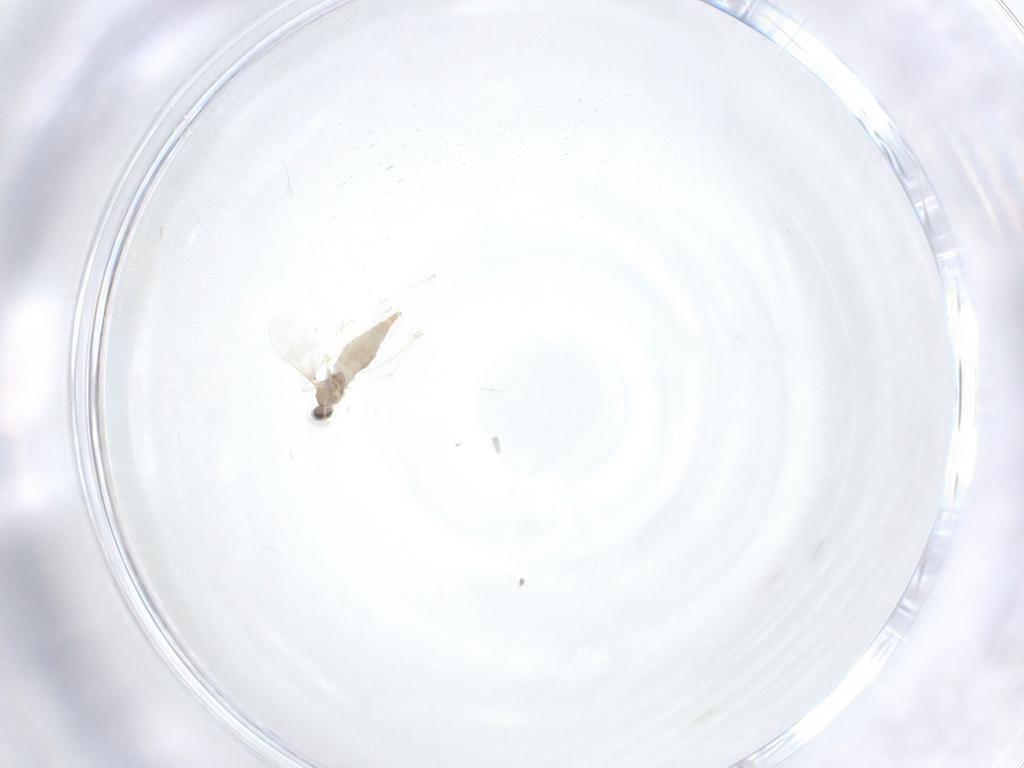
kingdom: Animalia
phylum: Arthropoda
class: Insecta
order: Diptera
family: Cecidomyiidae
